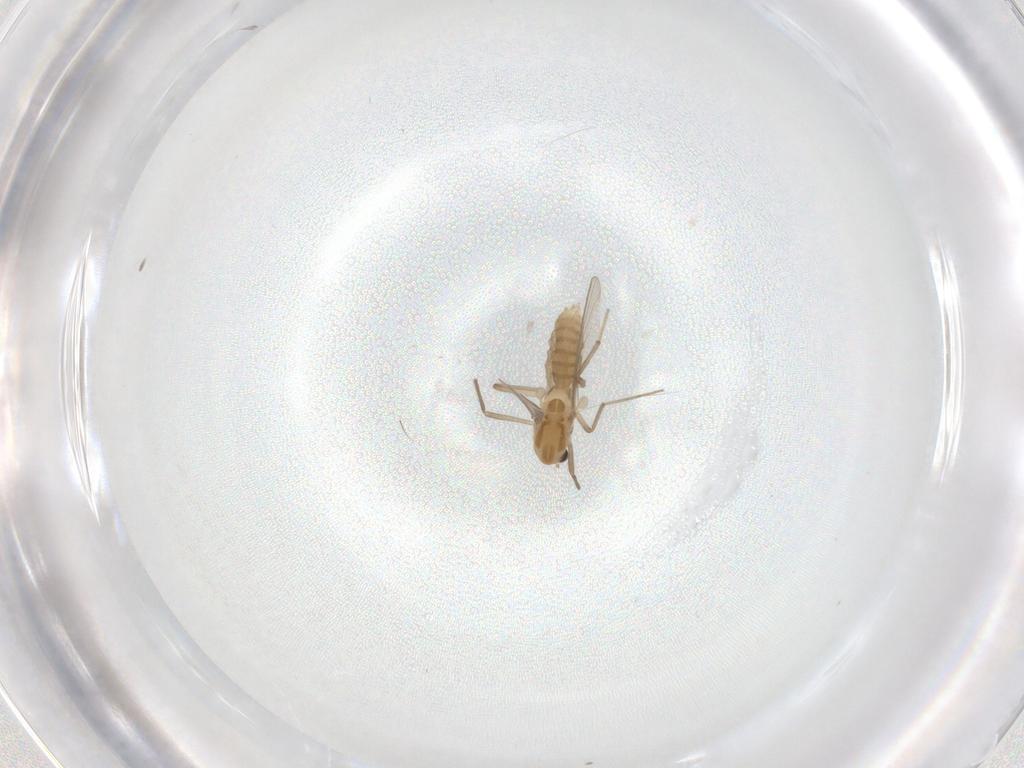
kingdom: Animalia
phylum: Arthropoda
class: Insecta
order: Diptera
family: Chironomidae
